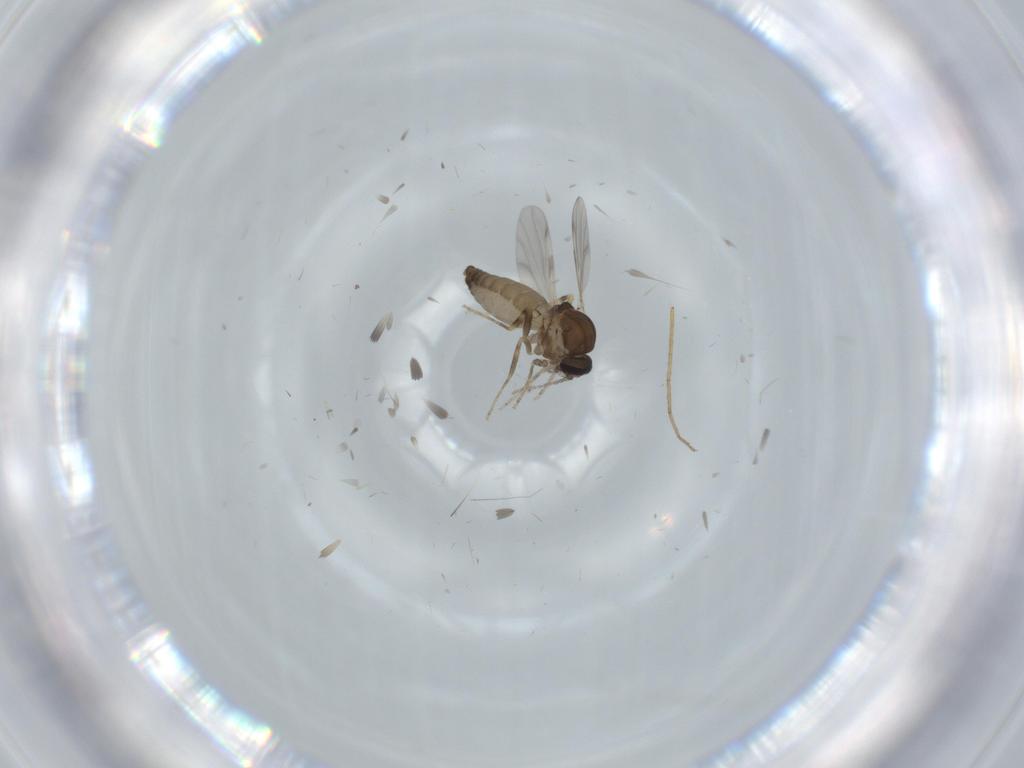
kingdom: Animalia
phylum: Arthropoda
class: Insecta
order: Diptera
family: Ceratopogonidae
